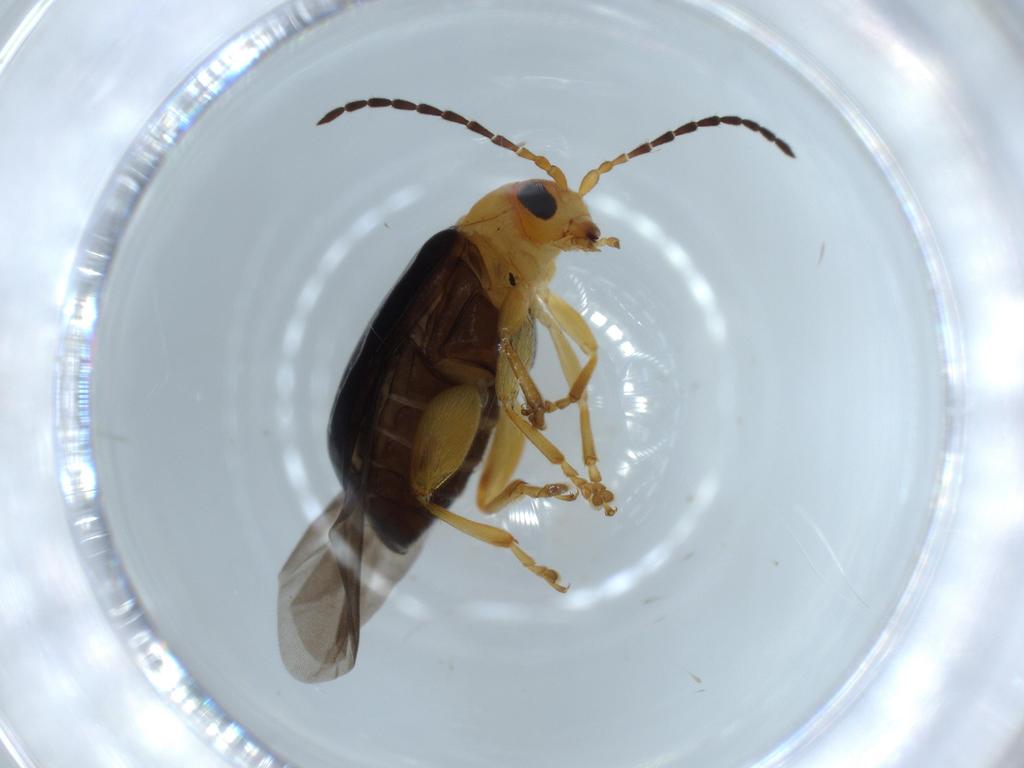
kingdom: Animalia
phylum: Arthropoda
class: Insecta
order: Coleoptera
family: Chrysomelidae
